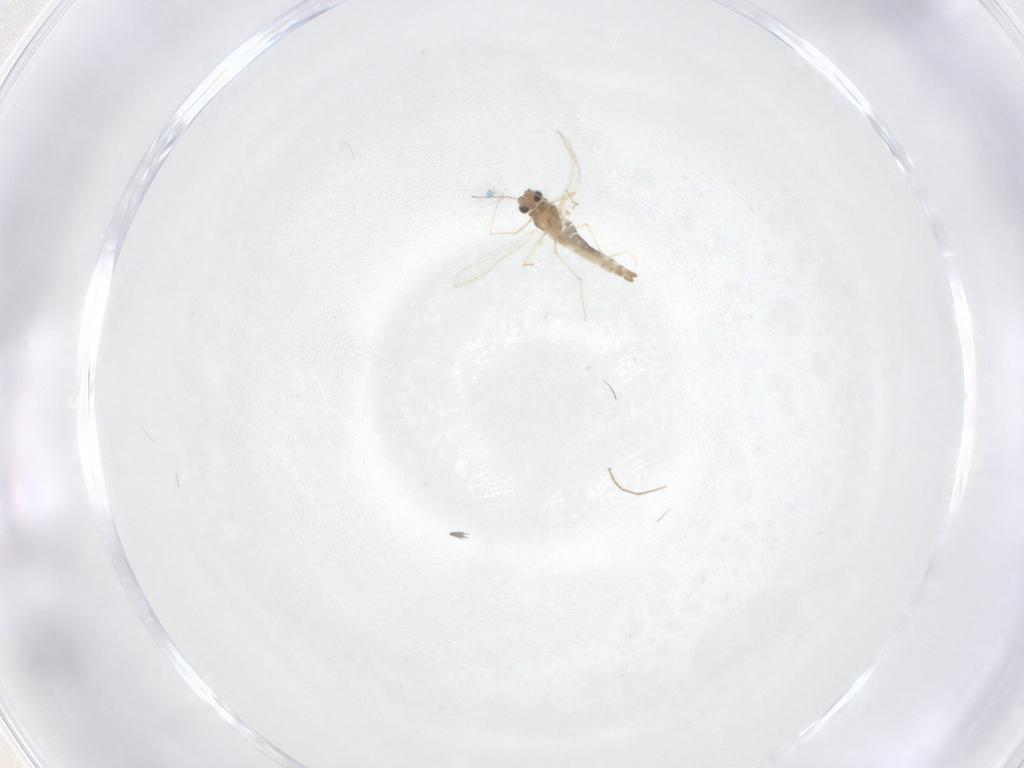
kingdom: Animalia
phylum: Arthropoda
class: Insecta
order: Diptera
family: Chironomidae
